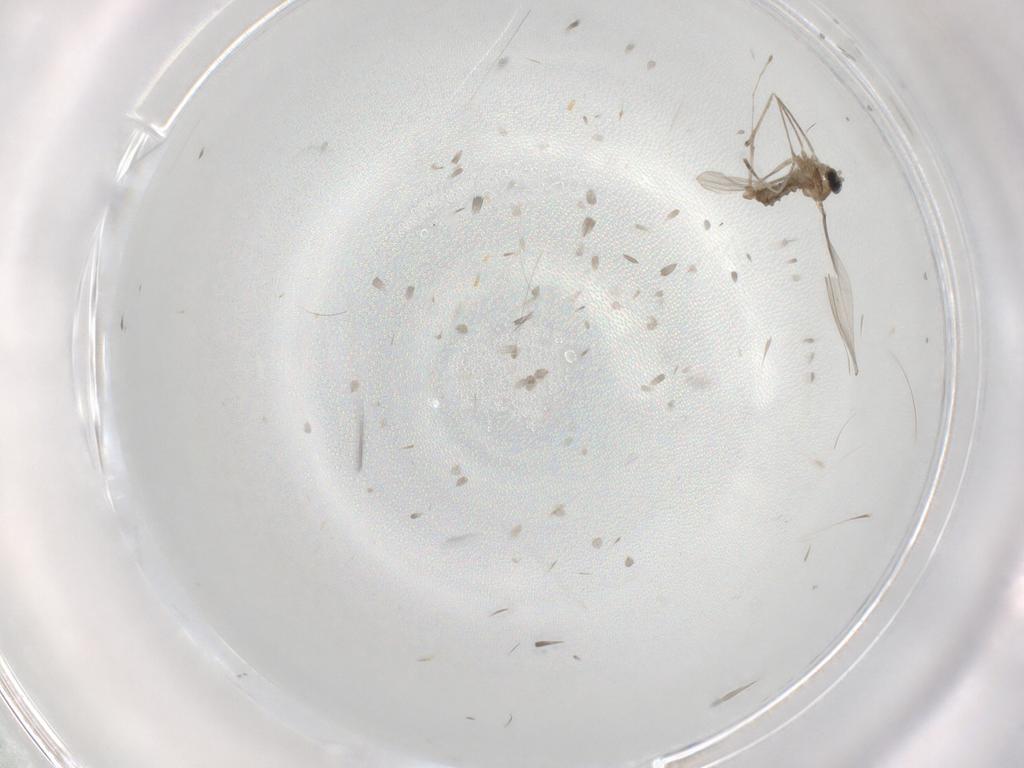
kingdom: Animalia
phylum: Arthropoda
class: Insecta
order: Diptera
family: Cecidomyiidae
